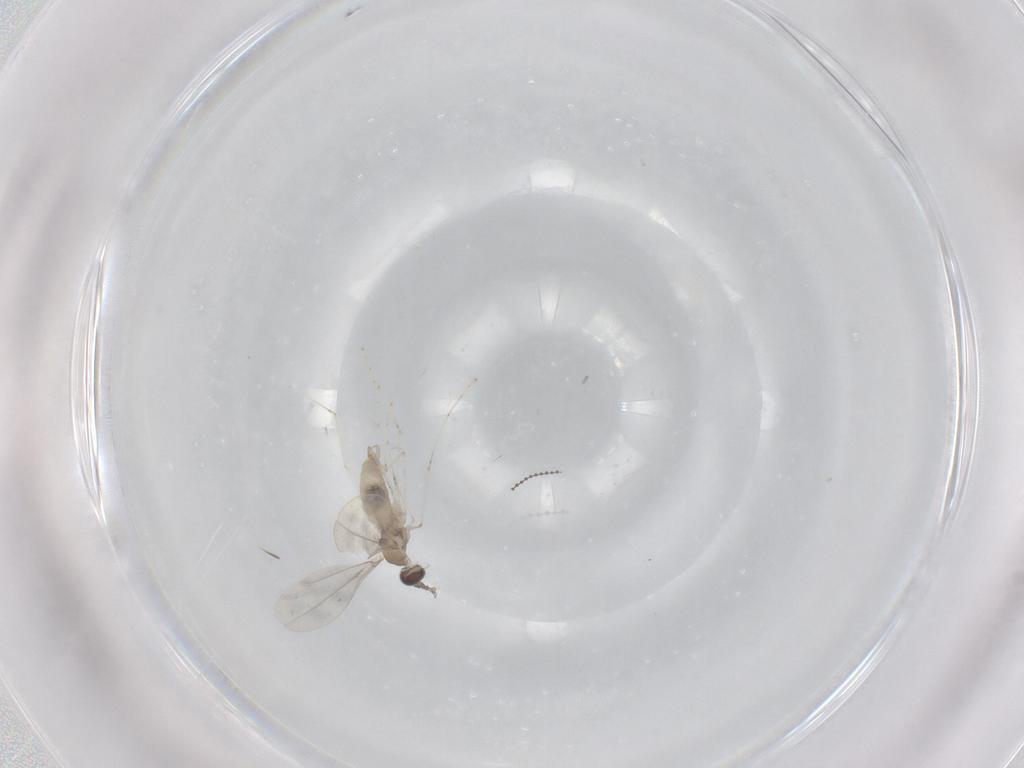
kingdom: Animalia
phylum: Arthropoda
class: Insecta
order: Diptera
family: Cecidomyiidae
